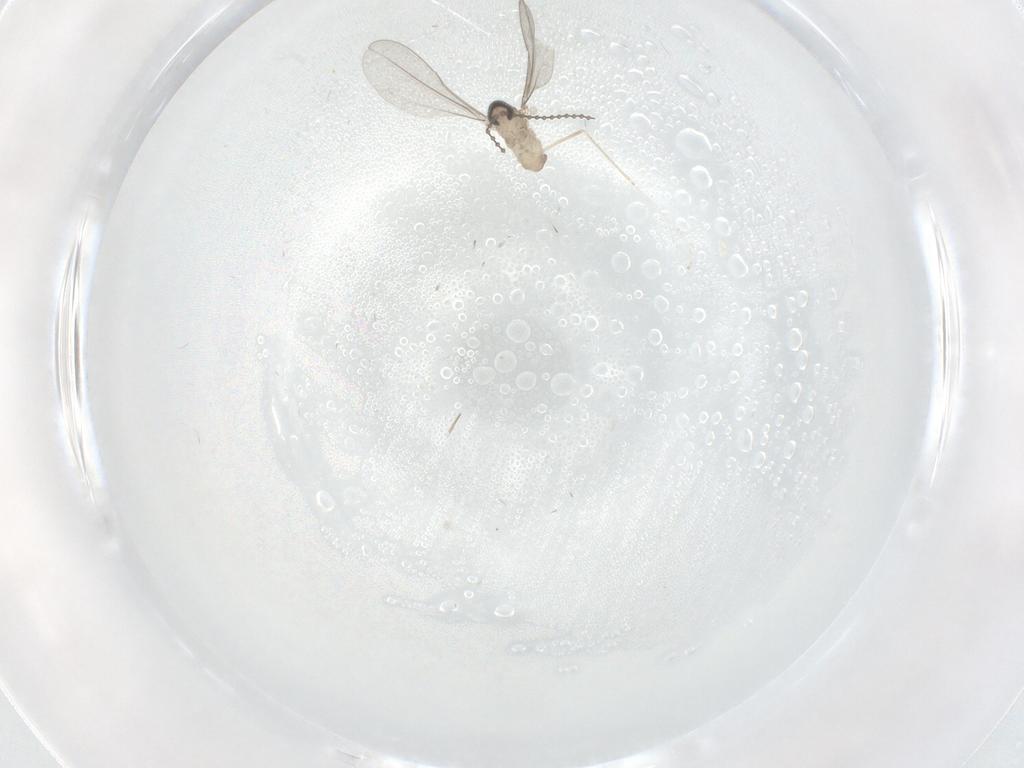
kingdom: Animalia
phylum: Arthropoda
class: Insecta
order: Diptera
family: Cecidomyiidae
